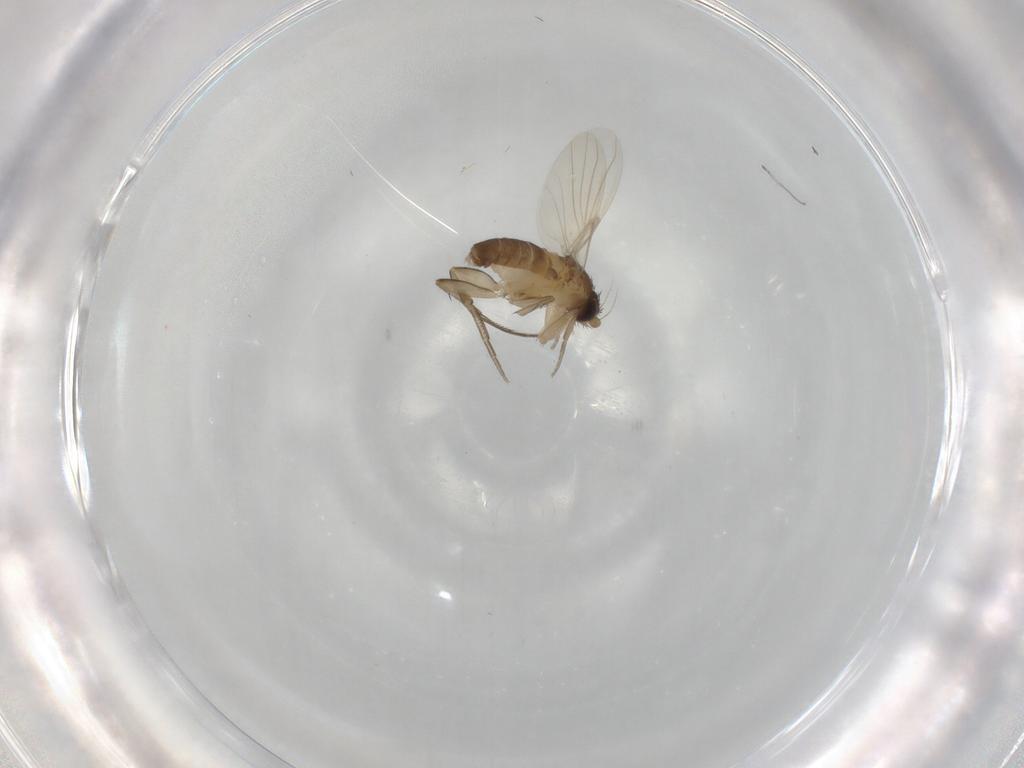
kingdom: Animalia
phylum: Arthropoda
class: Insecta
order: Diptera
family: Phoridae
